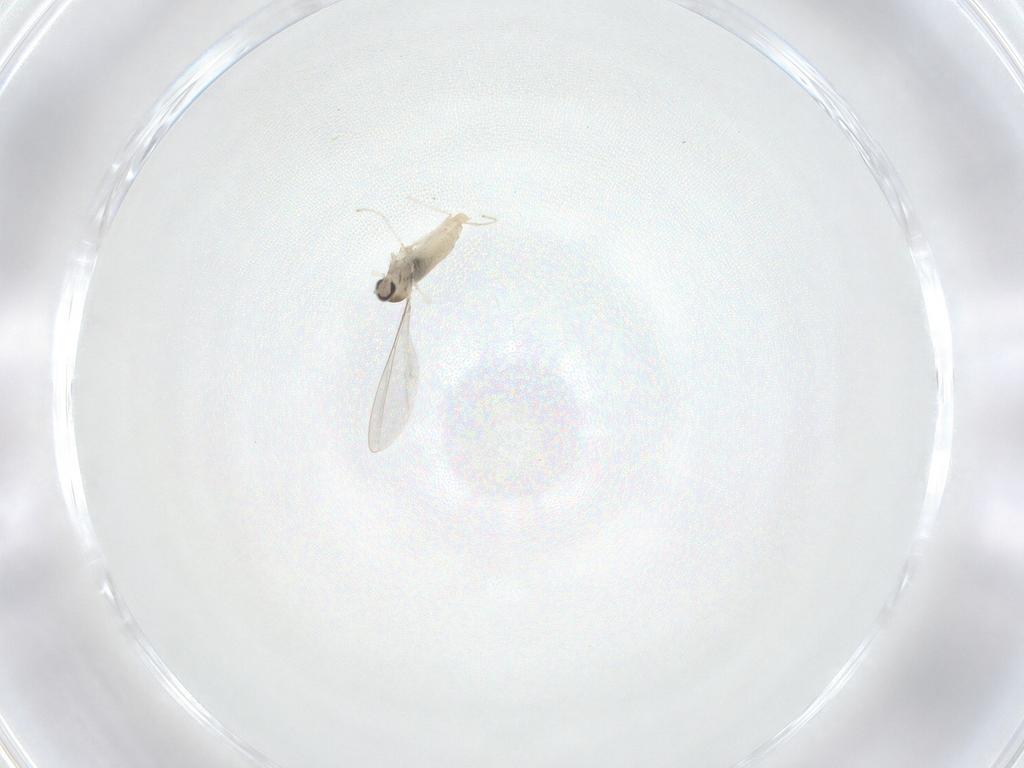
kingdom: Animalia
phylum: Arthropoda
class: Insecta
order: Diptera
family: Cecidomyiidae
